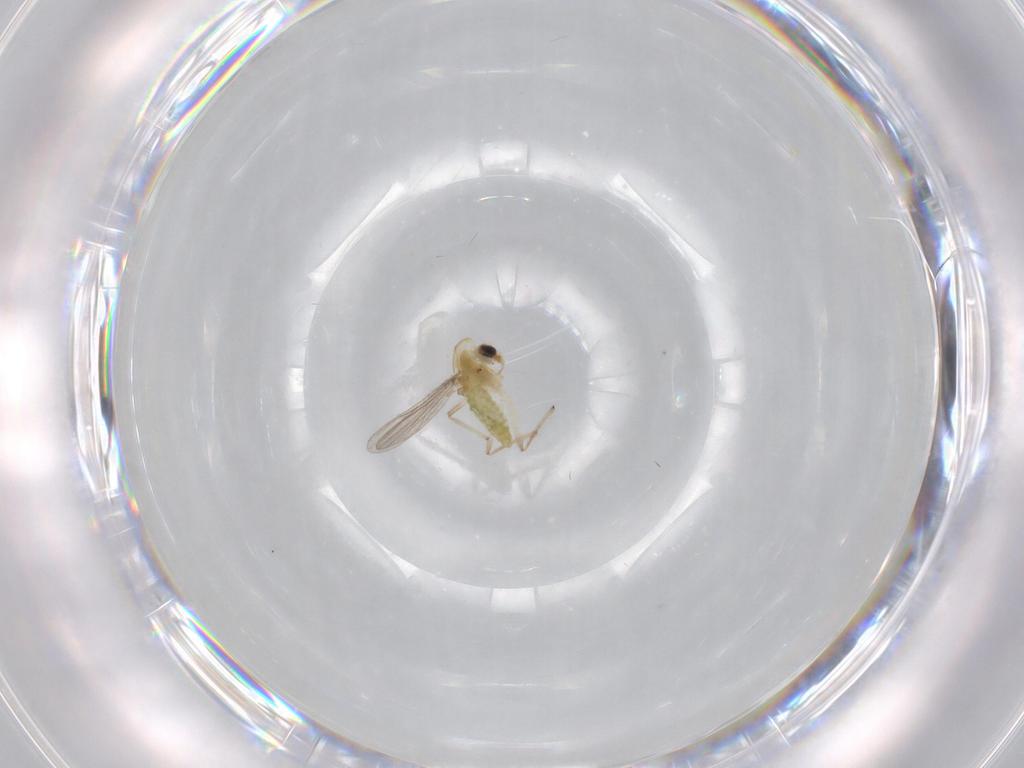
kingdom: Animalia
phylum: Arthropoda
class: Insecta
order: Diptera
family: Chironomidae
